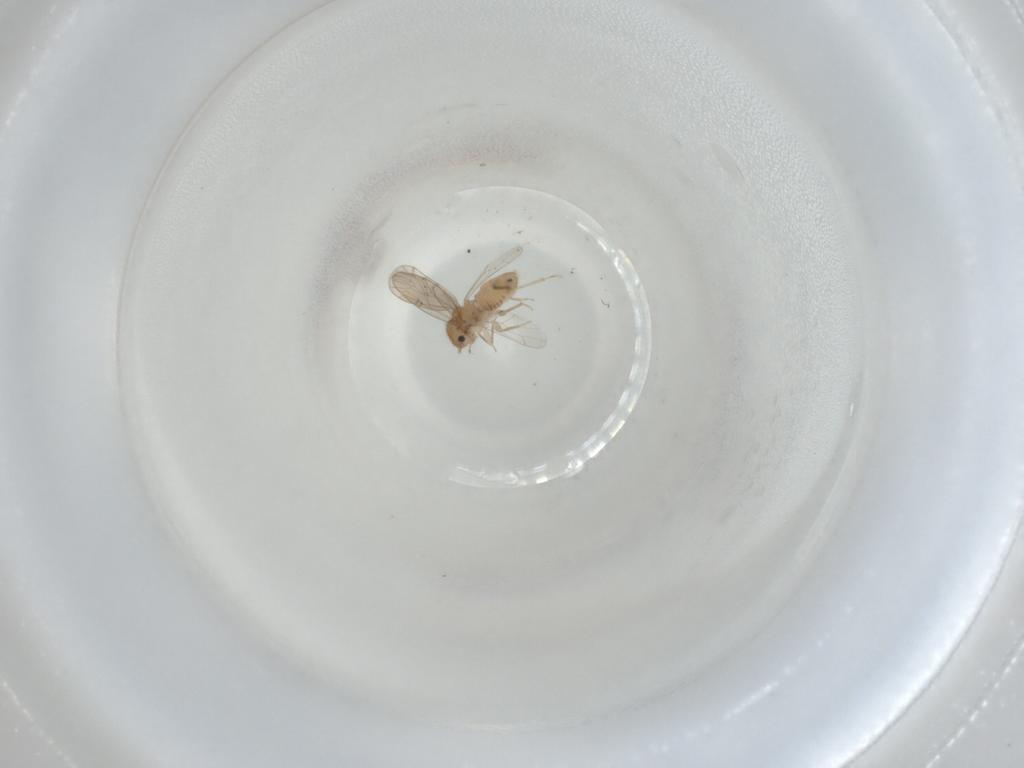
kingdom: Animalia
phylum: Arthropoda
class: Insecta
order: Psocodea
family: Ectopsocidae
